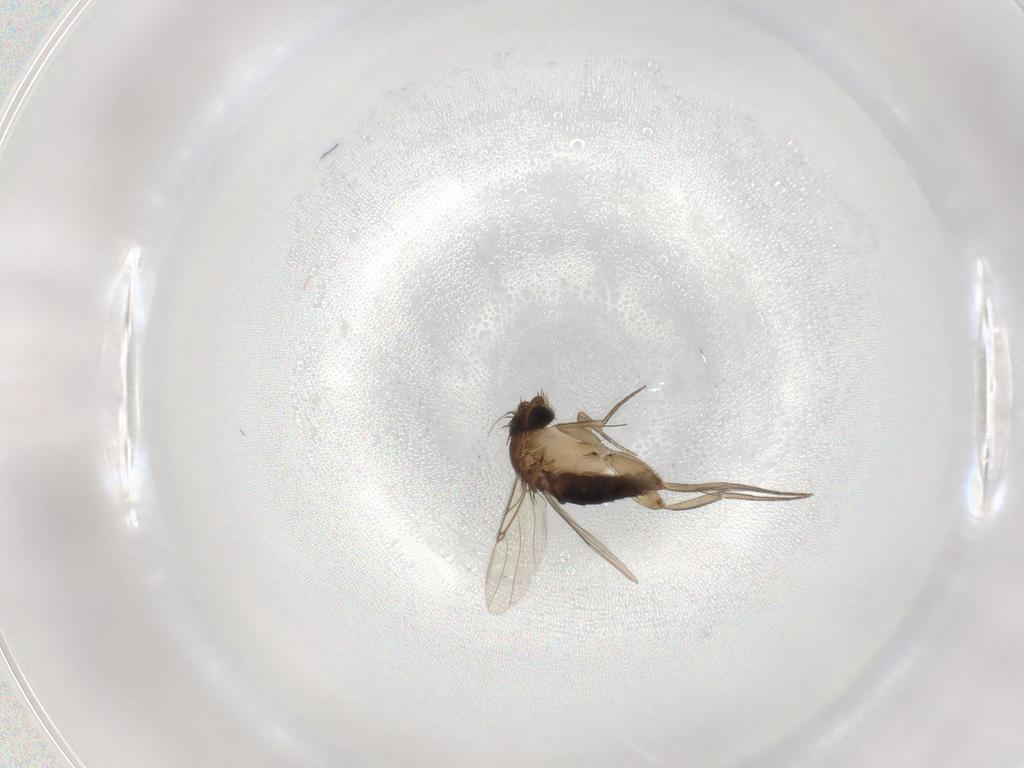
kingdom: Animalia
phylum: Arthropoda
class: Insecta
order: Diptera
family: Phoridae
